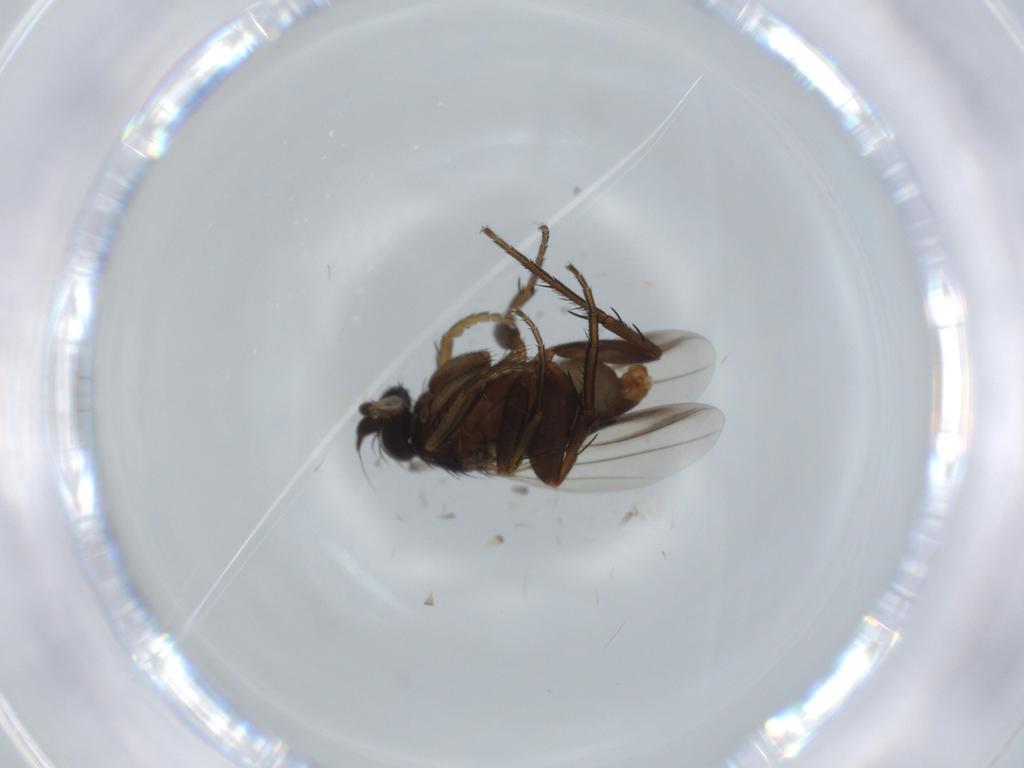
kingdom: Animalia
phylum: Arthropoda
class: Insecta
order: Diptera
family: Phoridae
